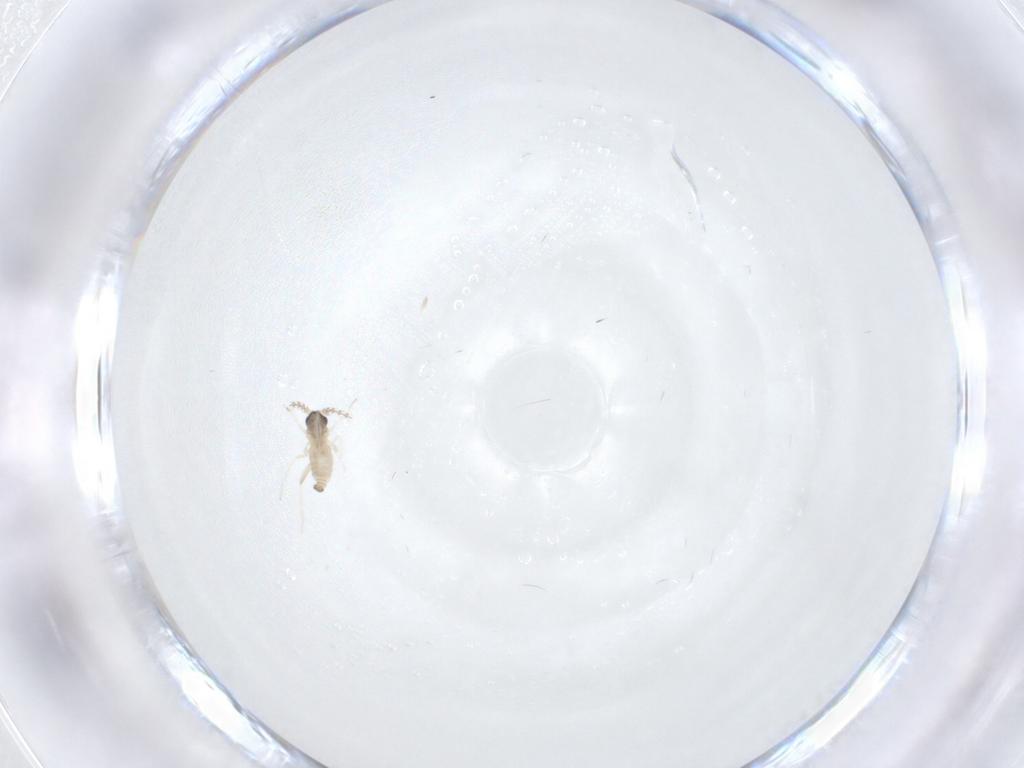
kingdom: Animalia
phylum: Arthropoda
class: Insecta
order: Diptera
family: Cecidomyiidae
